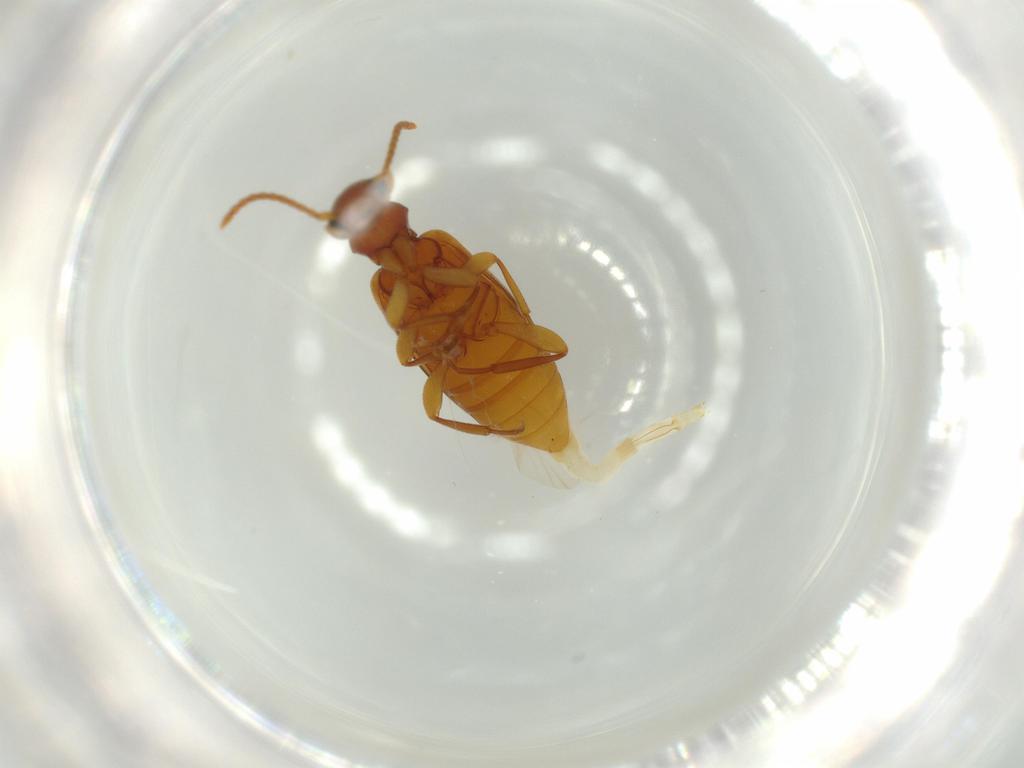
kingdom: Animalia
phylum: Arthropoda
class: Insecta
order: Coleoptera
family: Anthicidae
